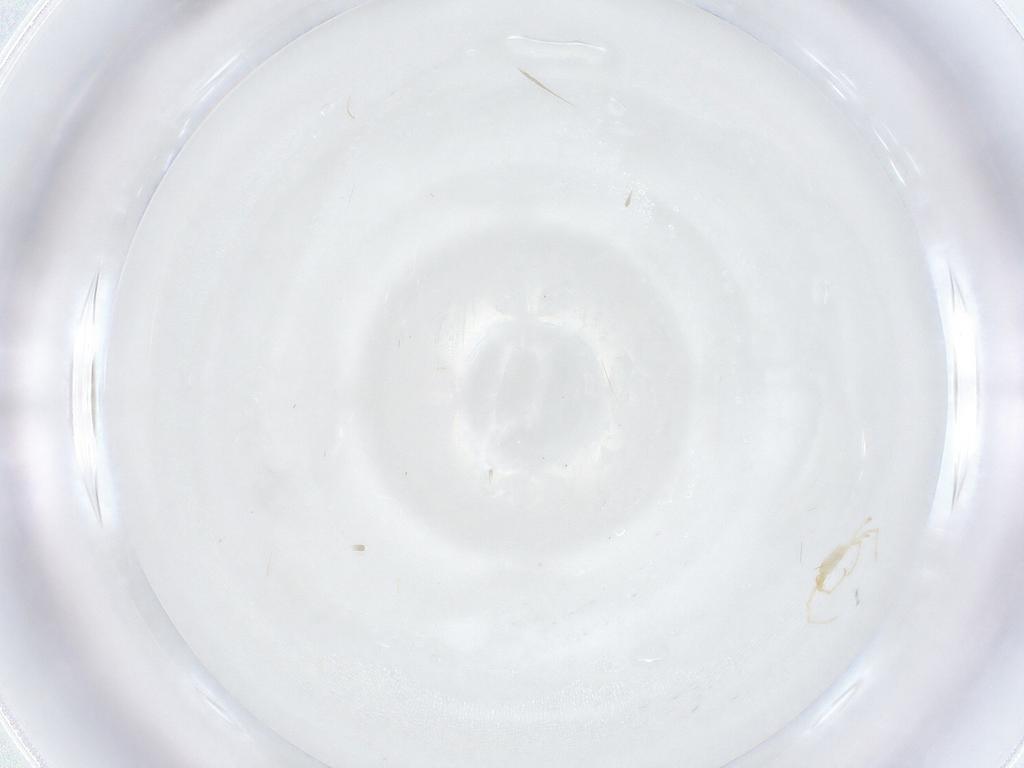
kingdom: Animalia
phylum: Arthropoda
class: Arachnida
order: Trombidiformes
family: Erythraeidae
